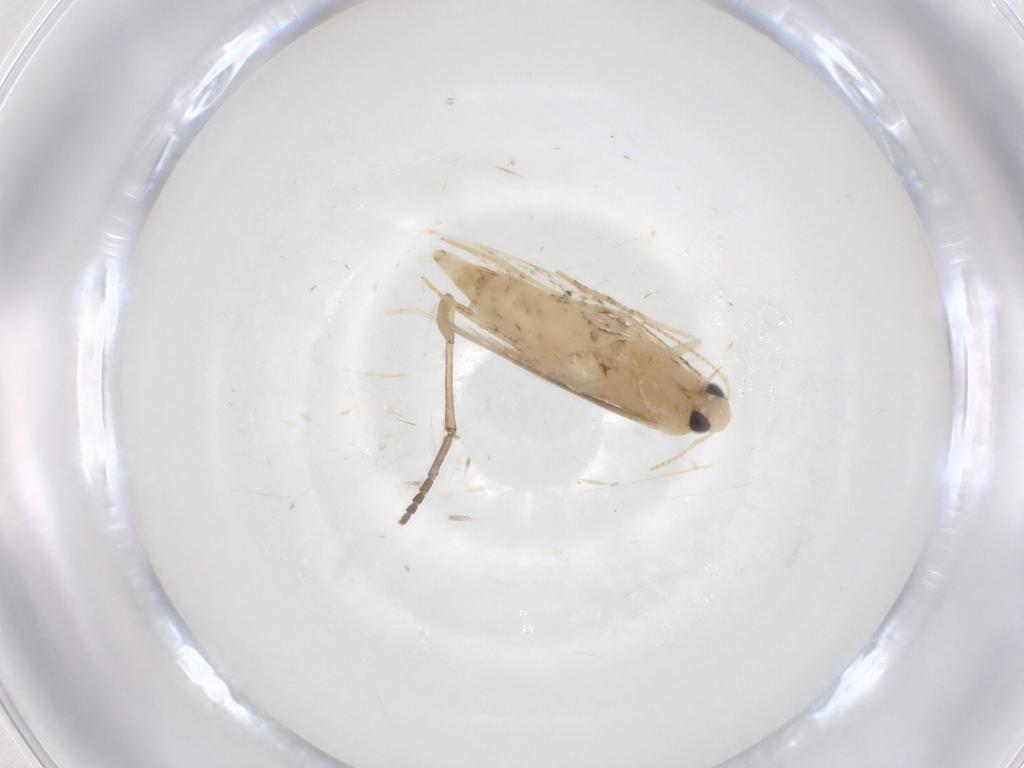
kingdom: Animalia
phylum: Arthropoda
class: Insecta
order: Lepidoptera
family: Gracillariidae
